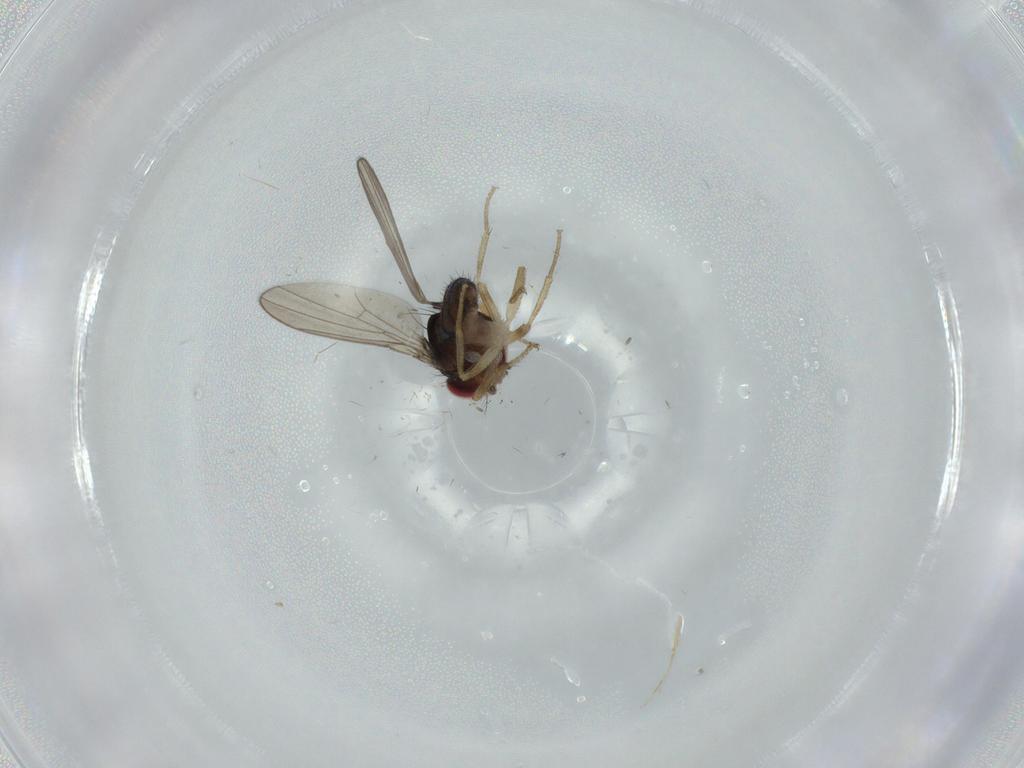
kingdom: Animalia
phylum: Arthropoda
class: Insecta
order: Diptera
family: Drosophilidae
